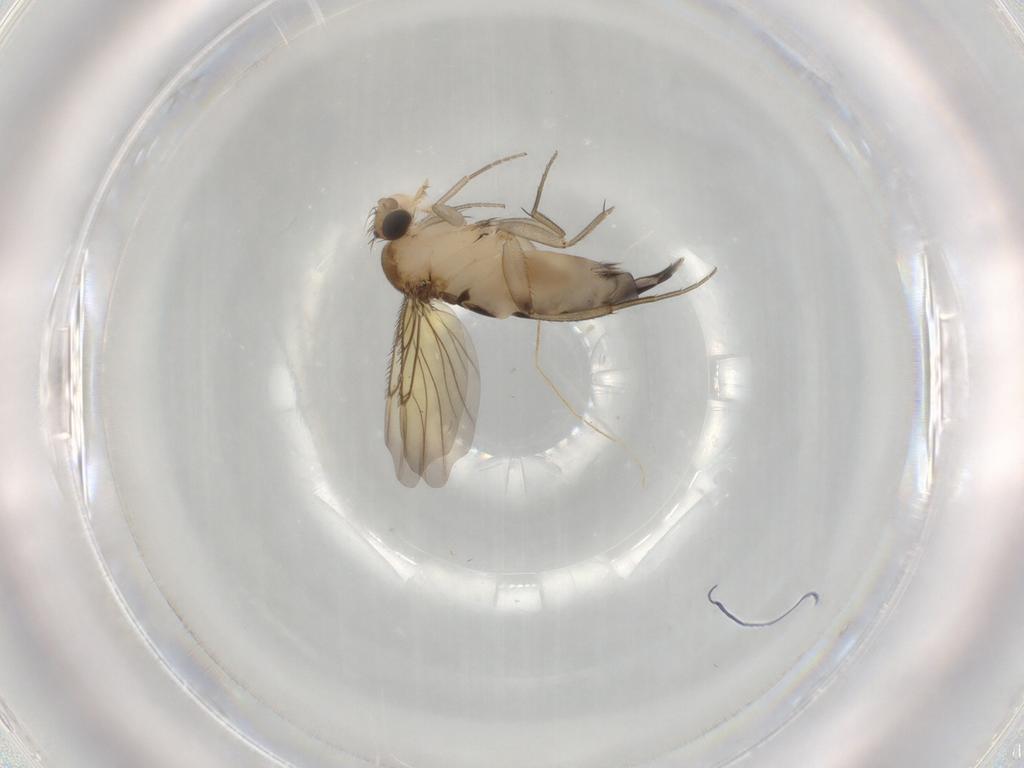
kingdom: Animalia
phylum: Arthropoda
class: Insecta
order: Diptera
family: Phoridae
